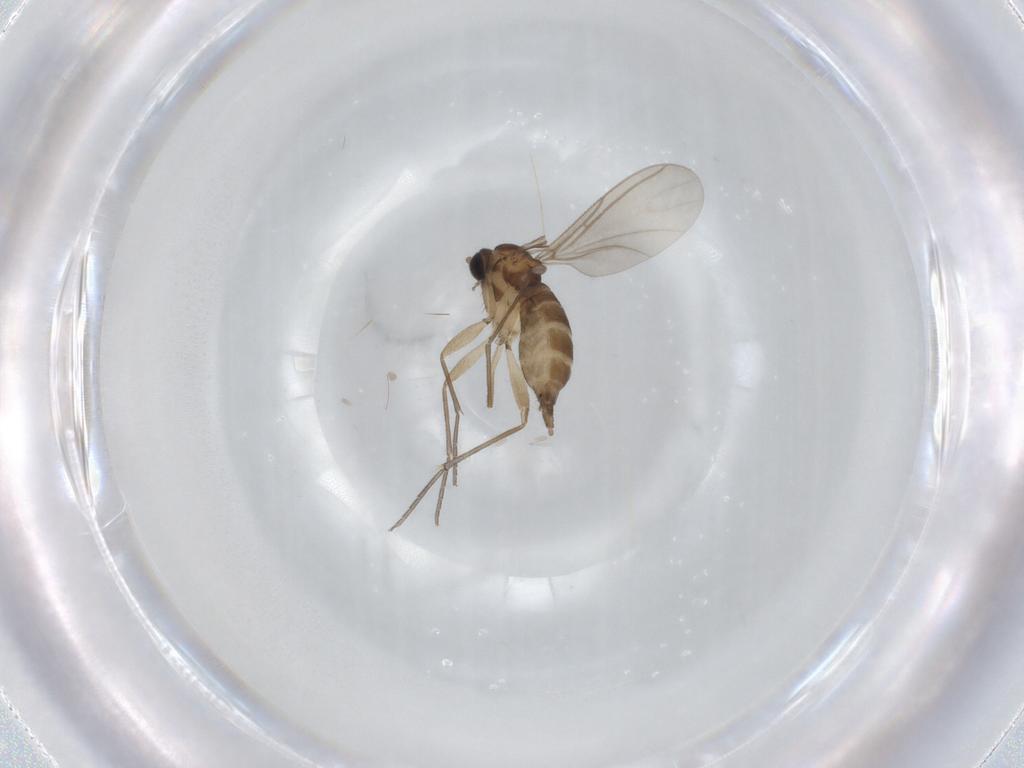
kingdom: Animalia
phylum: Arthropoda
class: Insecta
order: Diptera
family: Sciaridae
